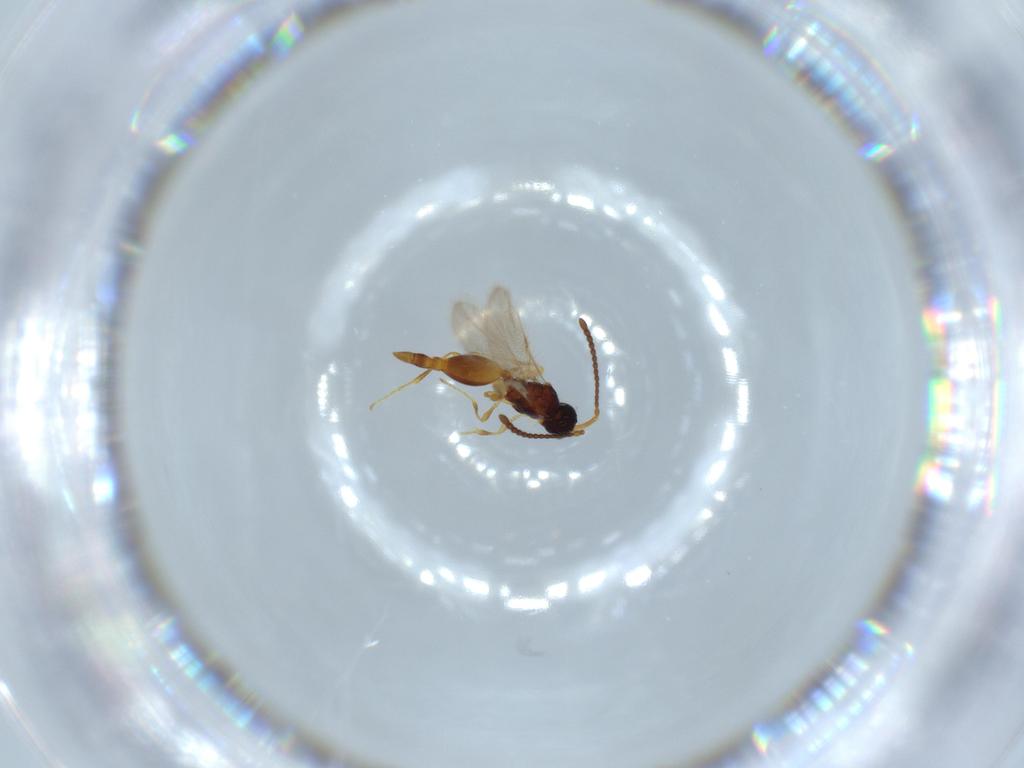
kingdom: Animalia
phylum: Arthropoda
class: Insecta
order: Hymenoptera
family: Diapriidae
